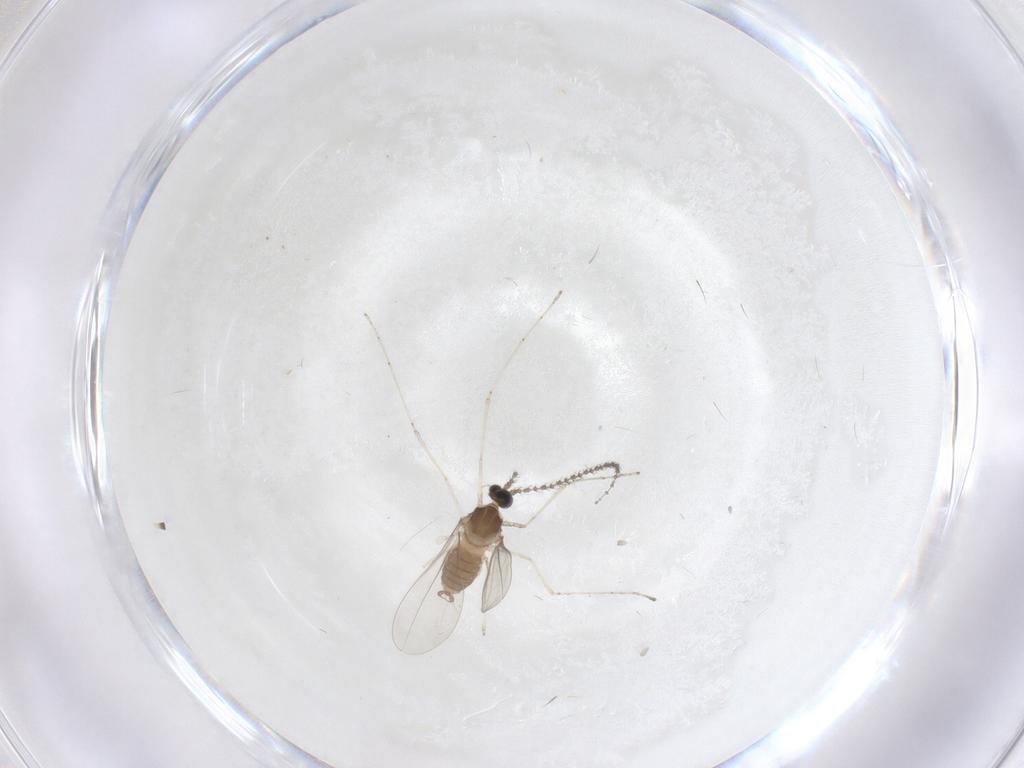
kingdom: Animalia
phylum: Arthropoda
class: Insecta
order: Diptera
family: Cecidomyiidae
